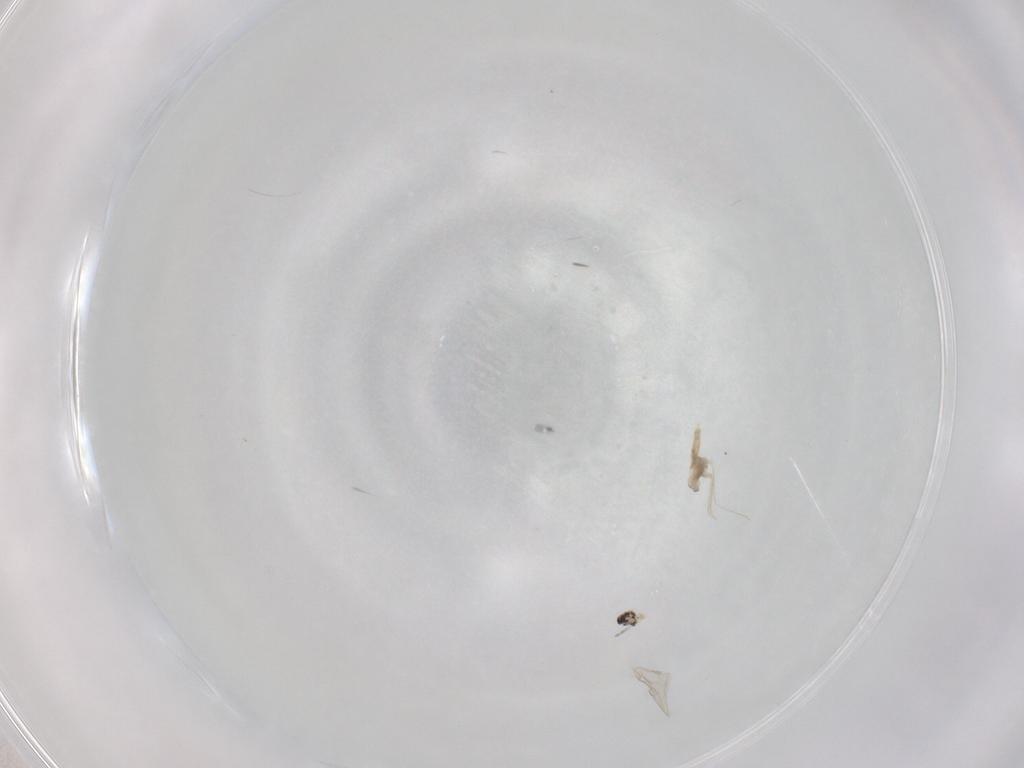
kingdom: Animalia
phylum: Arthropoda
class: Insecta
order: Diptera
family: Cecidomyiidae
